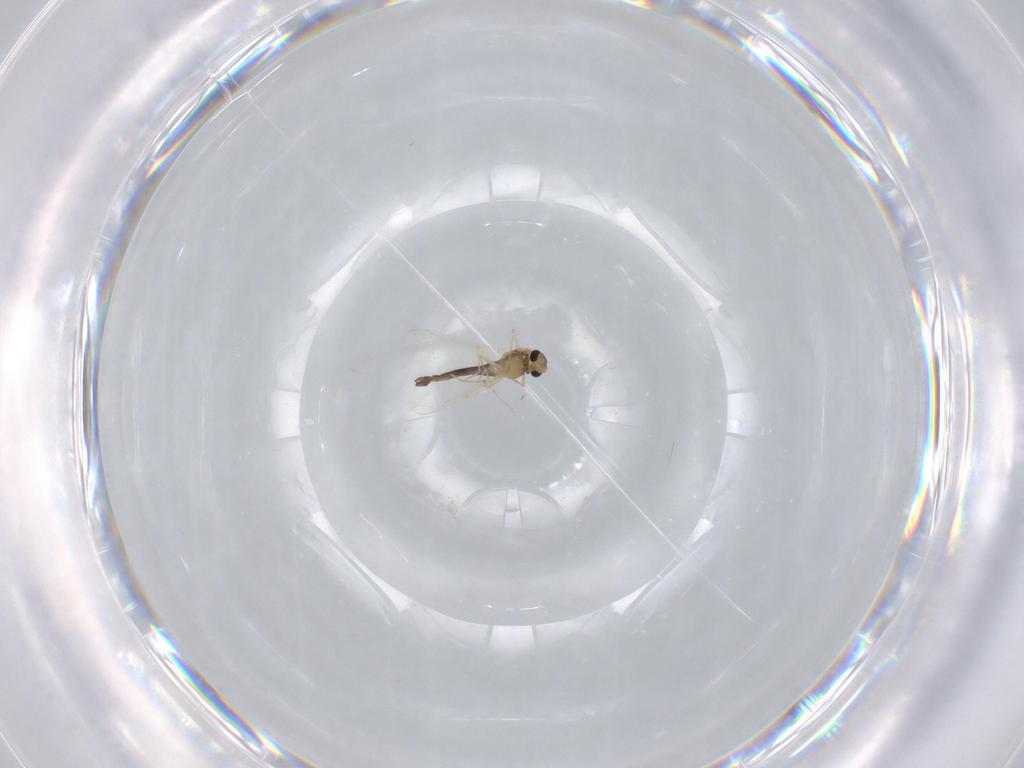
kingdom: Animalia
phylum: Arthropoda
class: Insecta
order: Diptera
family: Chironomidae
